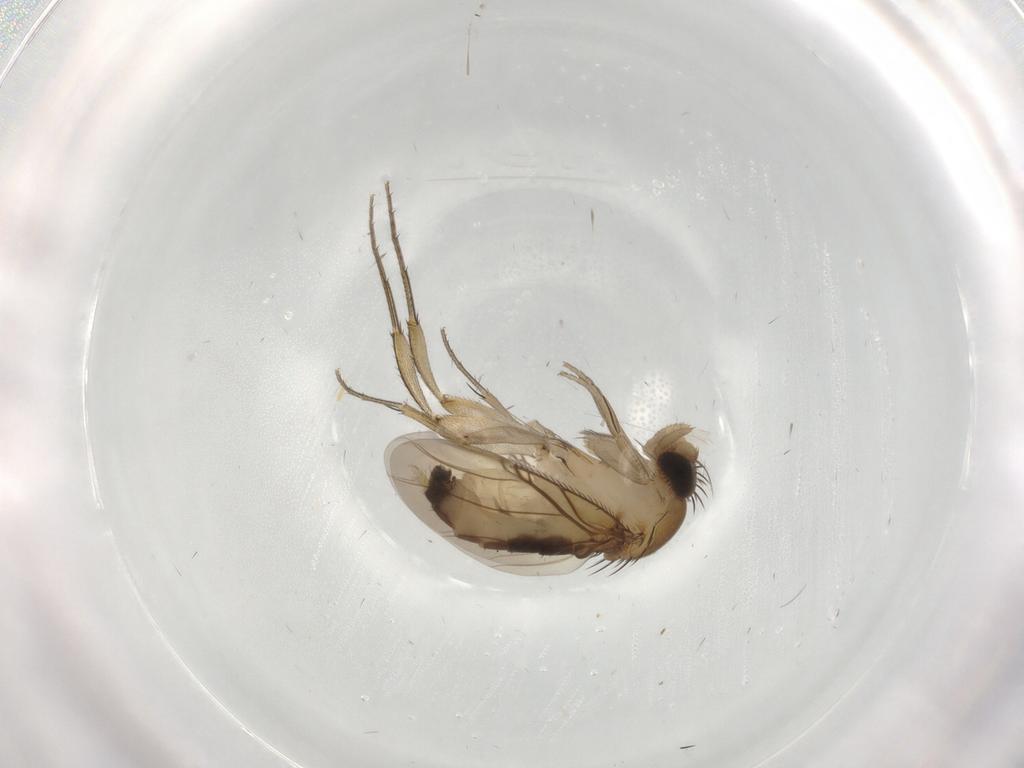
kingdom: Animalia
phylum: Arthropoda
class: Insecta
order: Diptera
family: Phoridae
